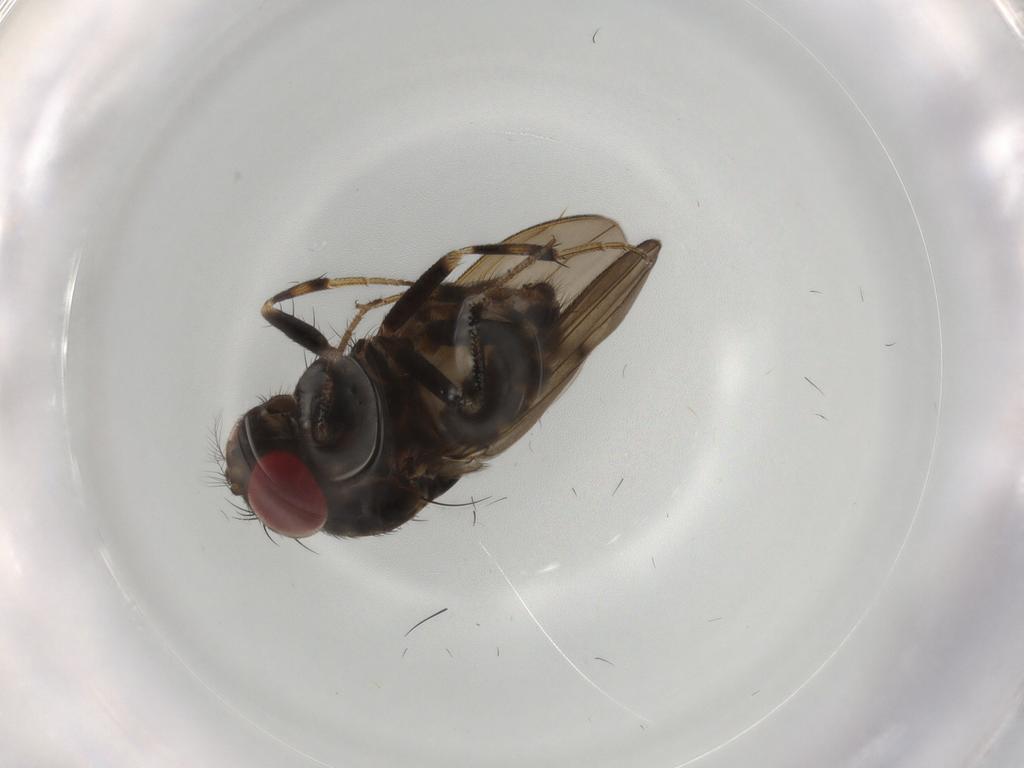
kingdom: Animalia
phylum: Arthropoda
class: Insecta
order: Diptera
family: Drosophilidae
